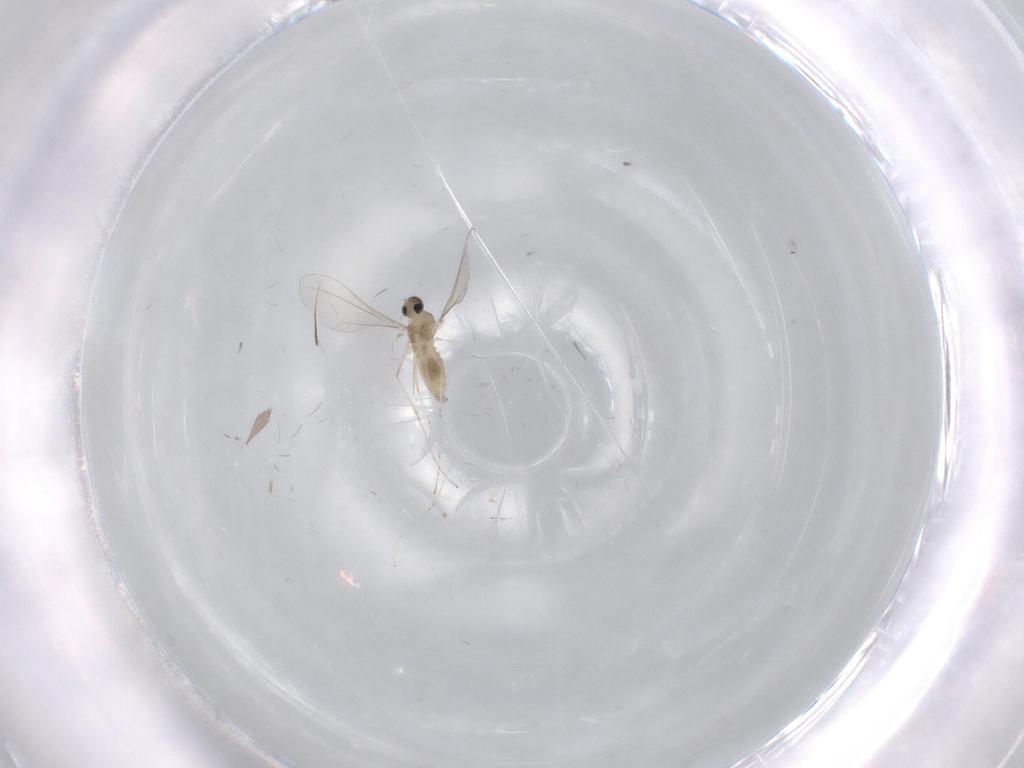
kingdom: Animalia
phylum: Arthropoda
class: Insecta
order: Diptera
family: Cecidomyiidae
